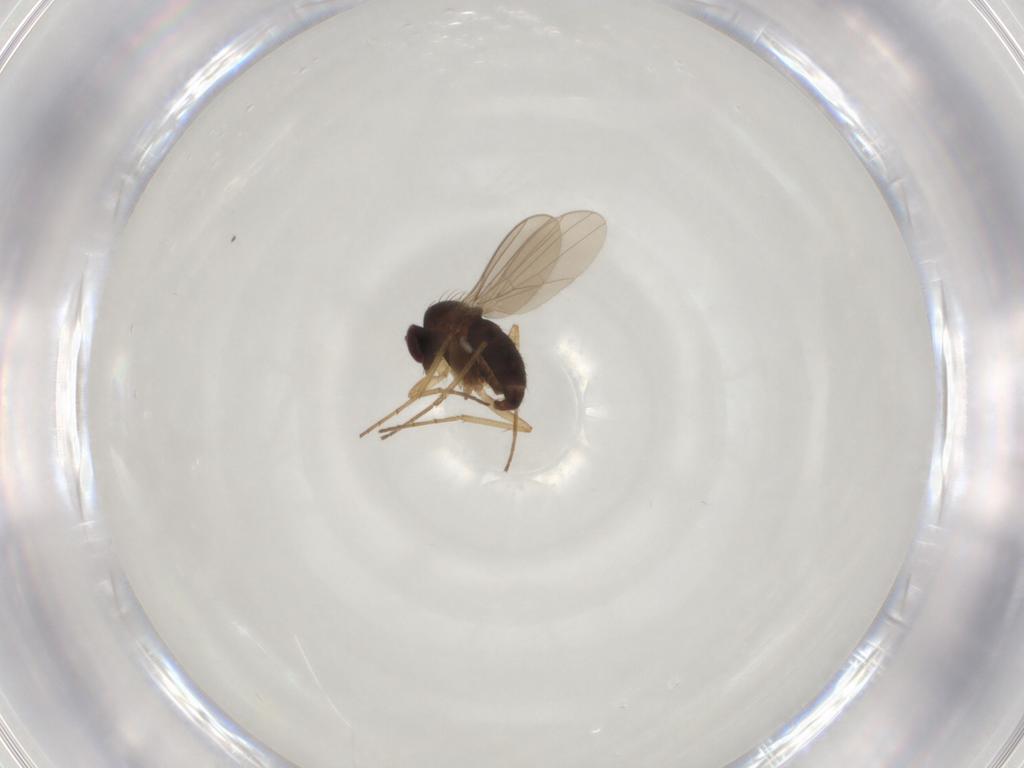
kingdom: Animalia
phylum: Arthropoda
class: Insecta
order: Diptera
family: Dolichopodidae
